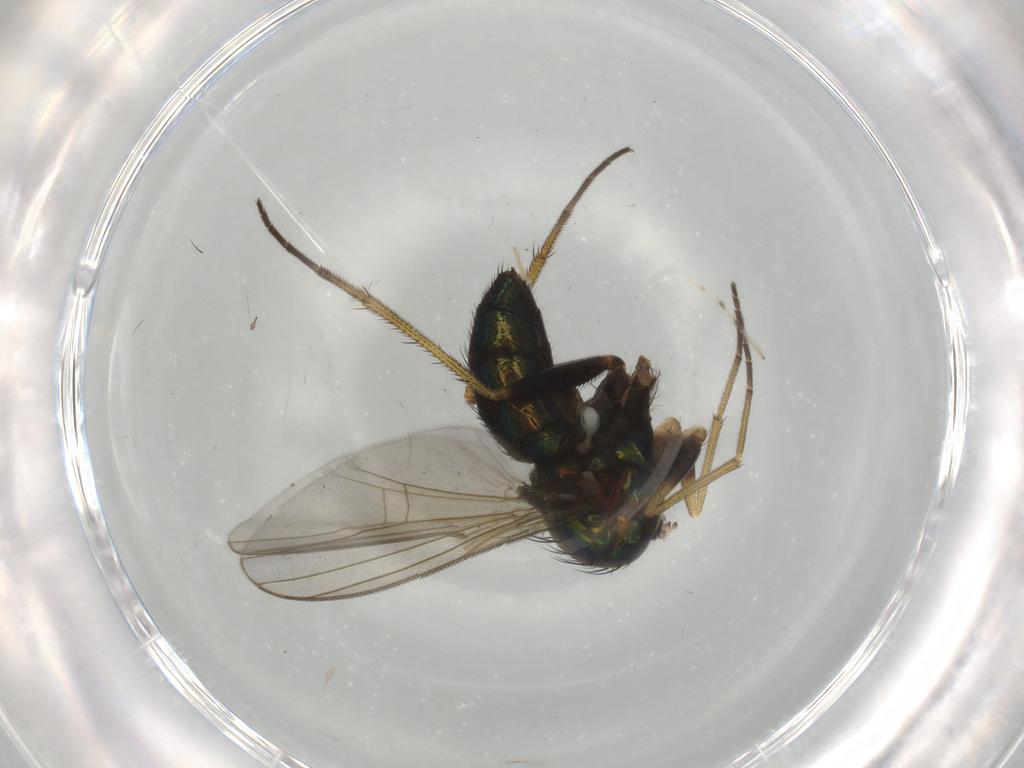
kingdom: Animalia
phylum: Arthropoda
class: Insecta
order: Diptera
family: Dolichopodidae
